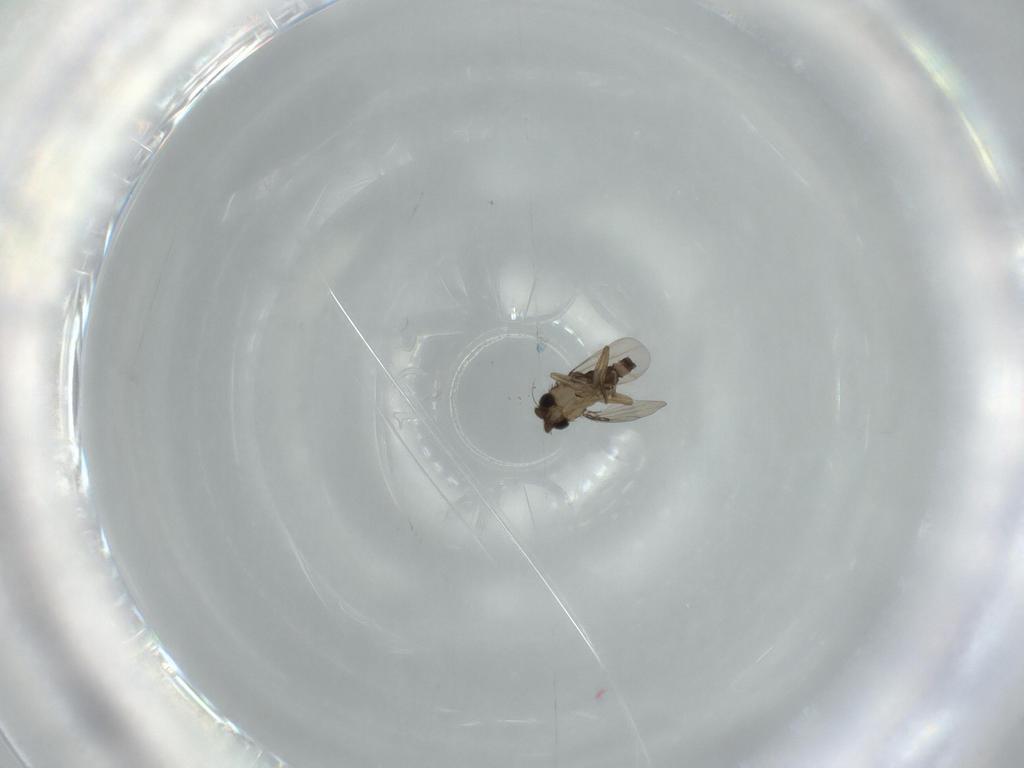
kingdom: Animalia
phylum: Arthropoda
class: Insecta
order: Diptera
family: Phoridae
